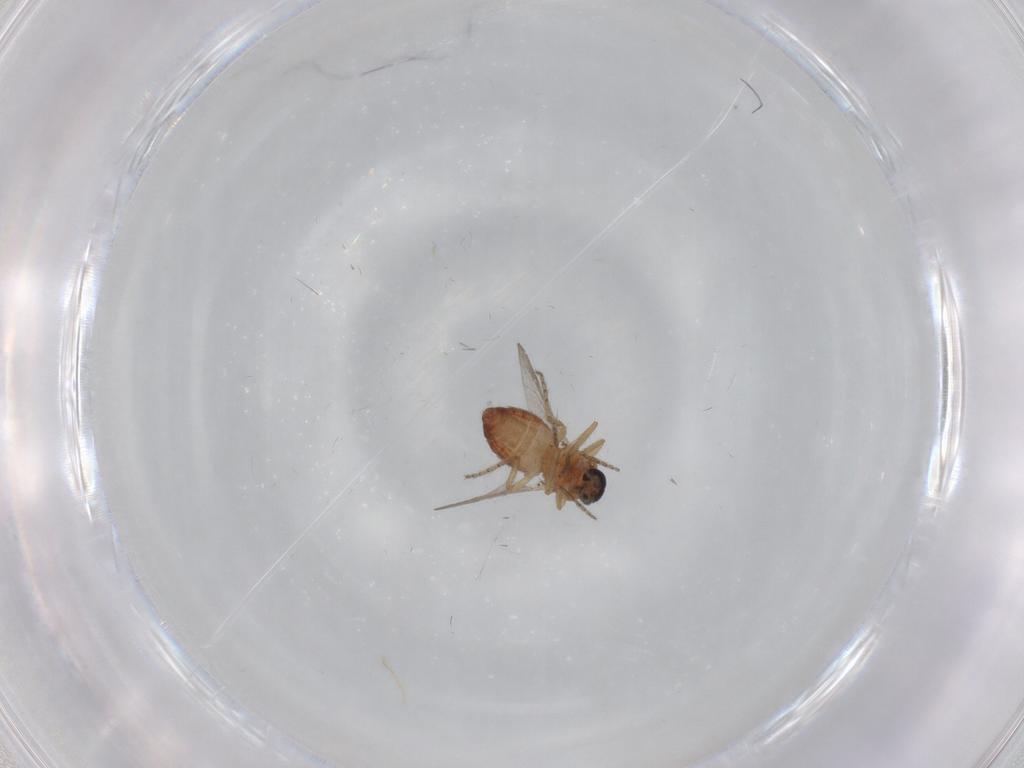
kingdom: Animalia
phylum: Arthropoda
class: Insecta
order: Diptera
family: Ceratopogonidae
